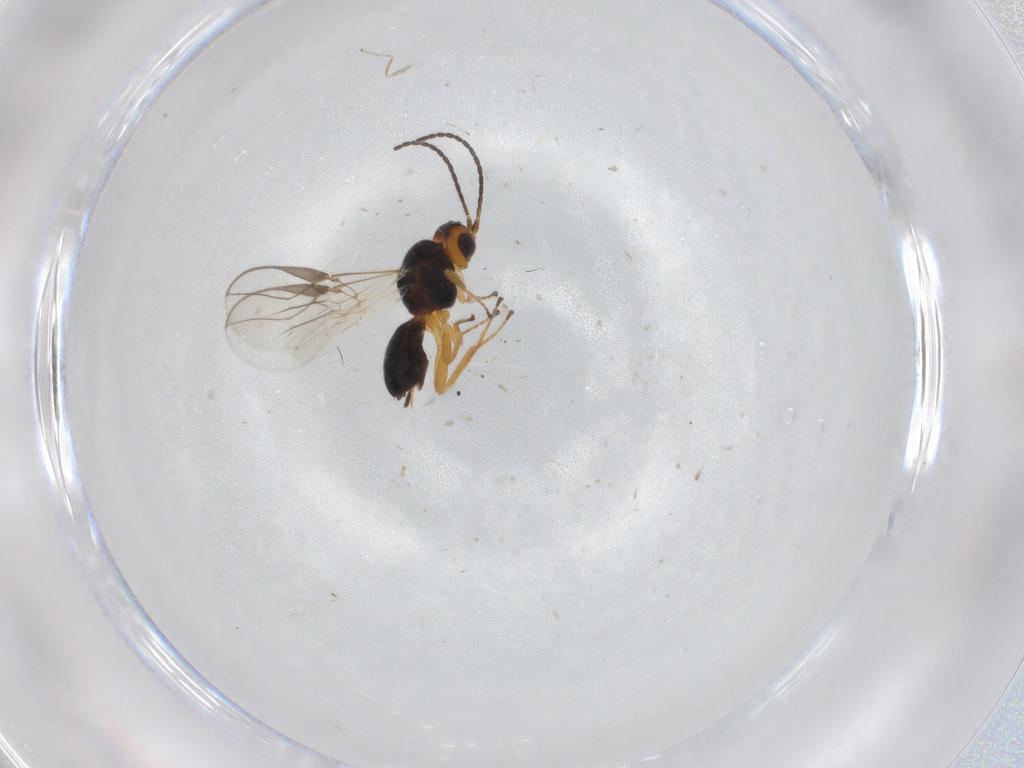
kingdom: Animalia
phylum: Arthropoda
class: Insecta
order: Hymenoptera
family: Braconidae
